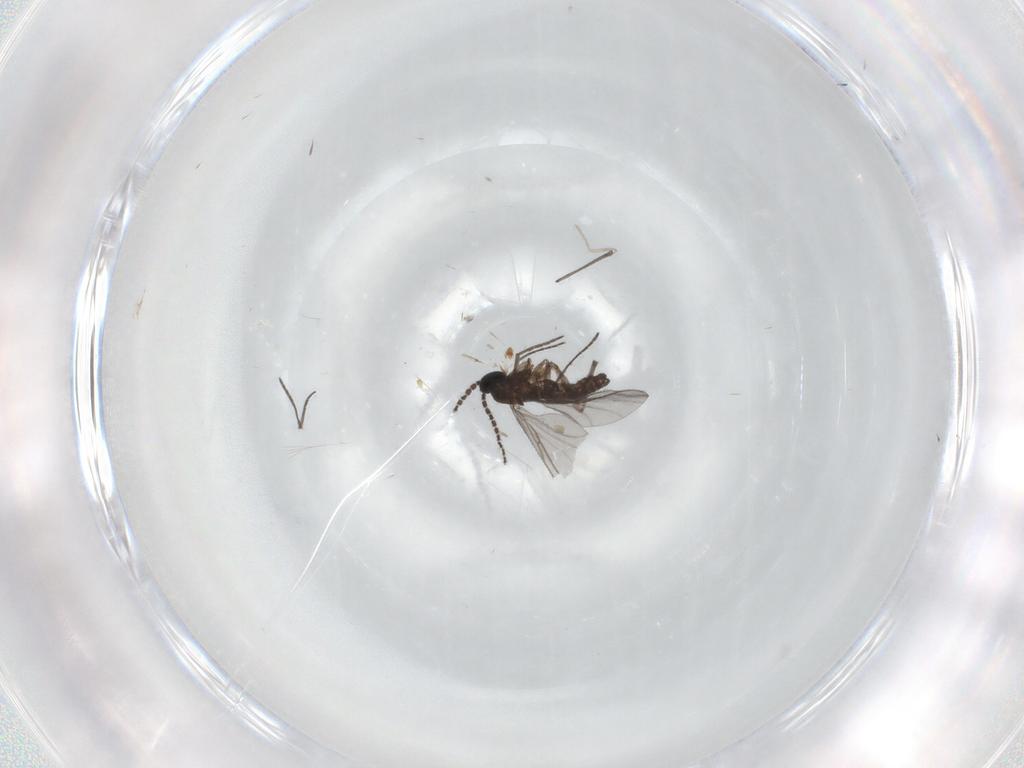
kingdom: Animalia
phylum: Arthropoda
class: Insecta
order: Diptera
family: Sciaridae
